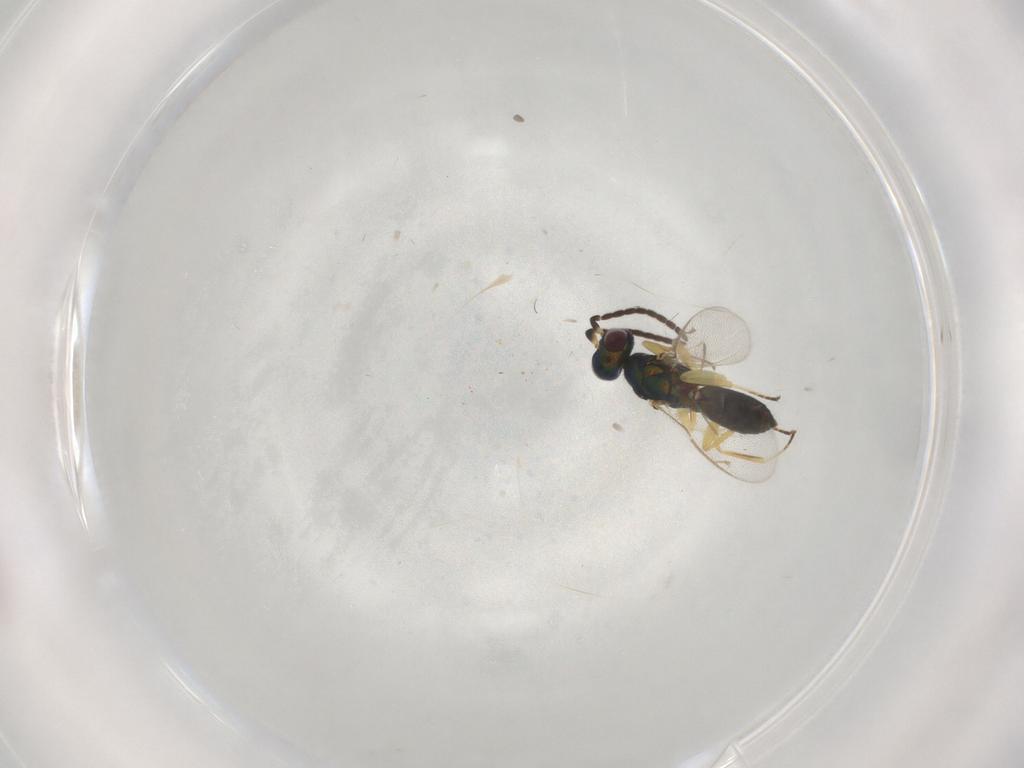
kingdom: Animalia
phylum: Arthropoda
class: Insecta
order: Hymenoptera
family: Eupelmidae
